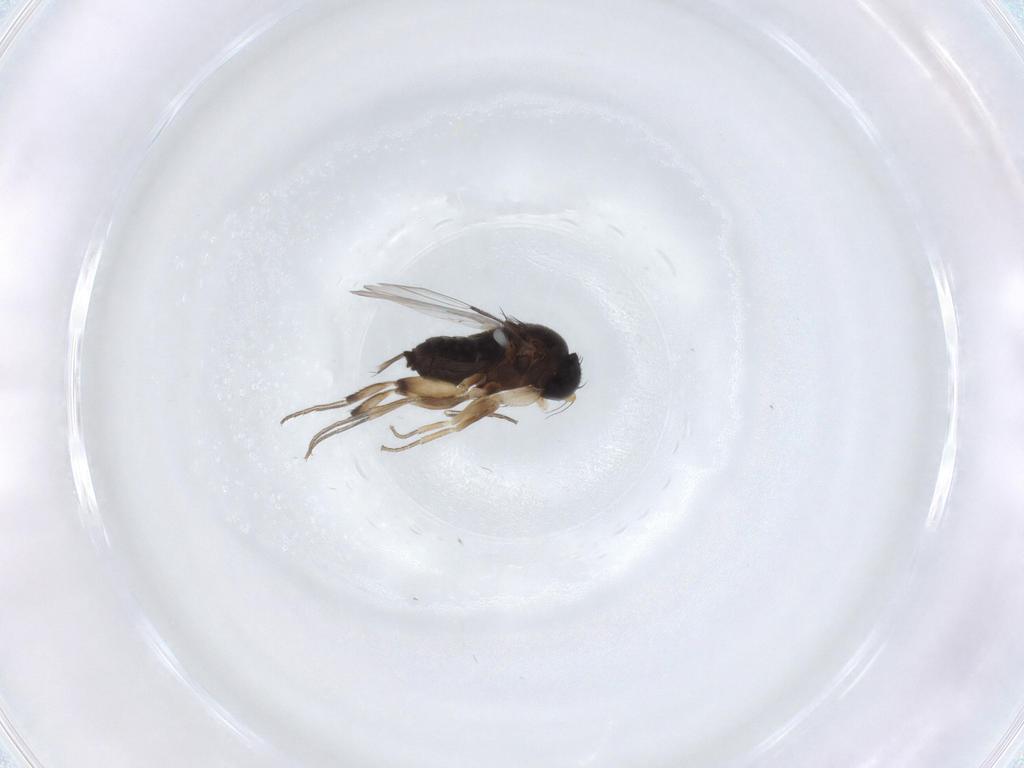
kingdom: Animalia
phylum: Arthropoda
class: Insecta
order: Diptera
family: Phoridae
